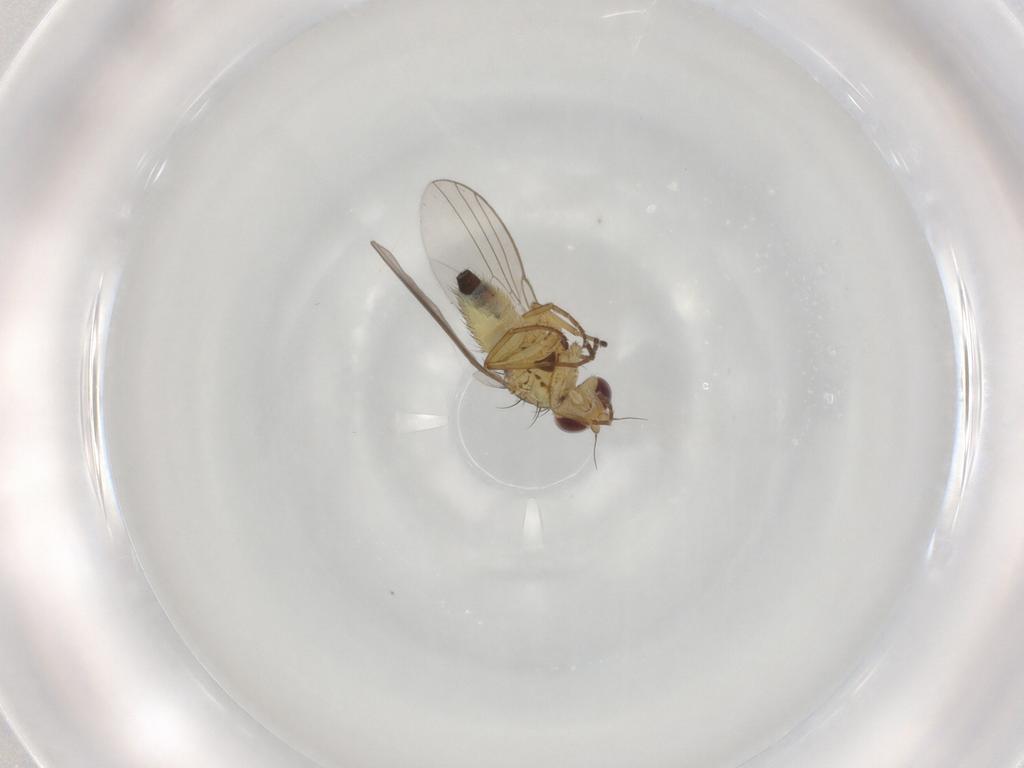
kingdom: Animalia
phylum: Arthropoda
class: Insecta
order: Diptera
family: Agromyzidae
